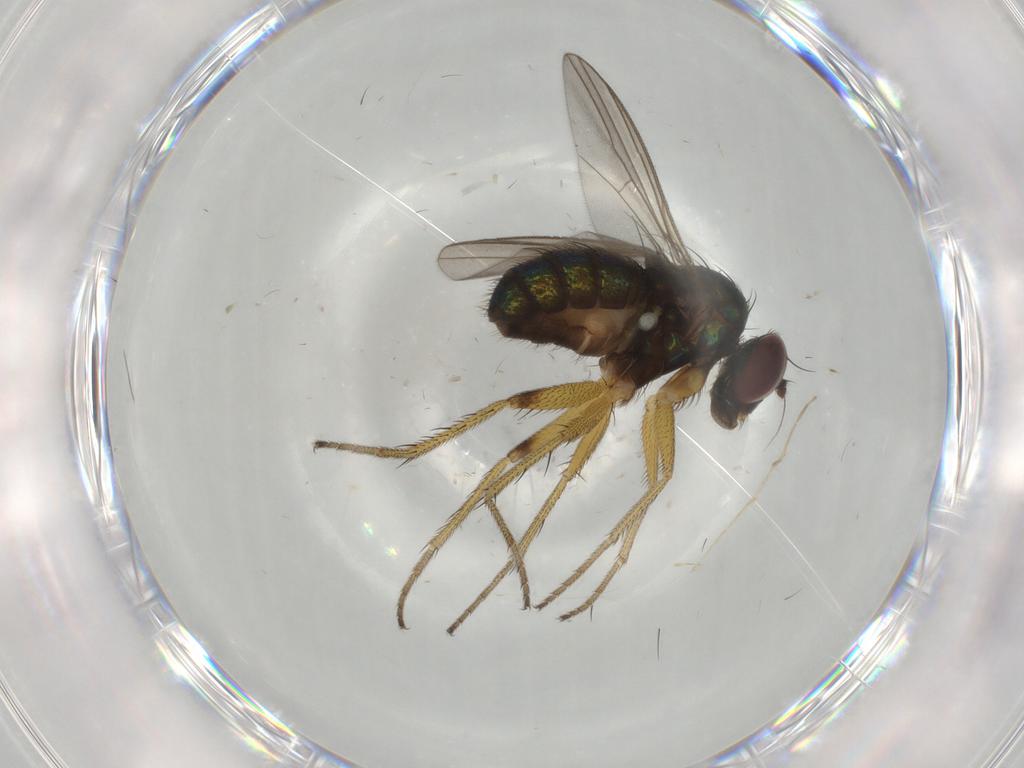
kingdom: Animalia
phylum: Arthropoda
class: Insecta
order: Diptera
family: Dolichopodidae
